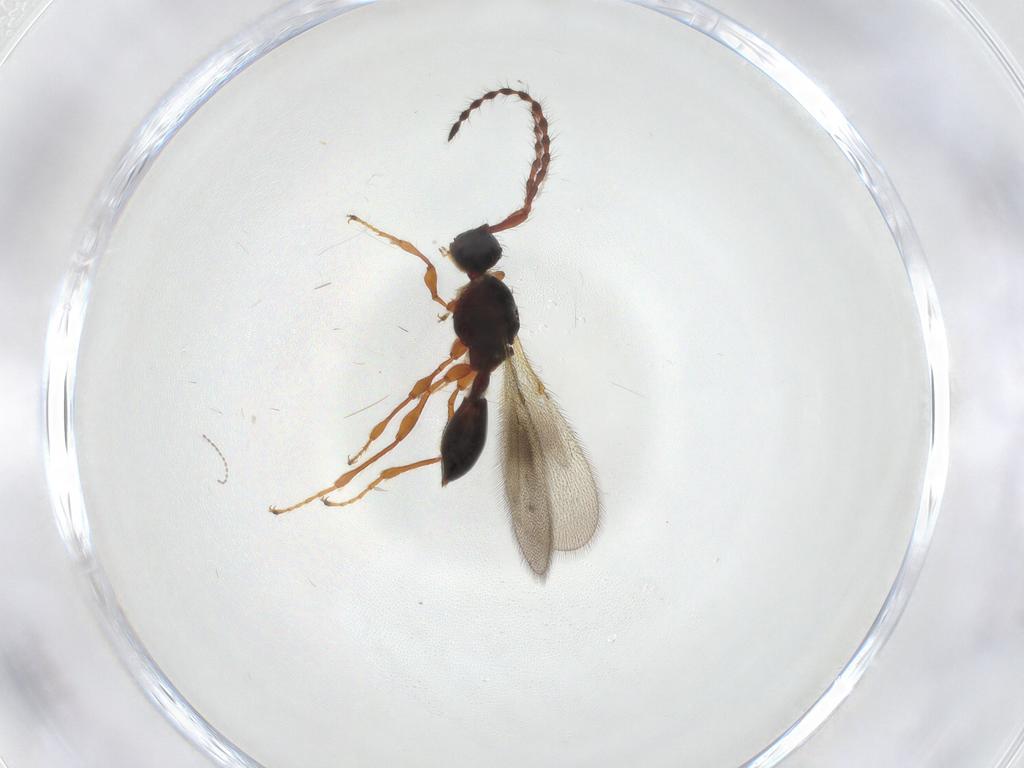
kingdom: Animalia
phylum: Arthropoda
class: Insecta
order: Hymenoptera
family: Diapriidae
